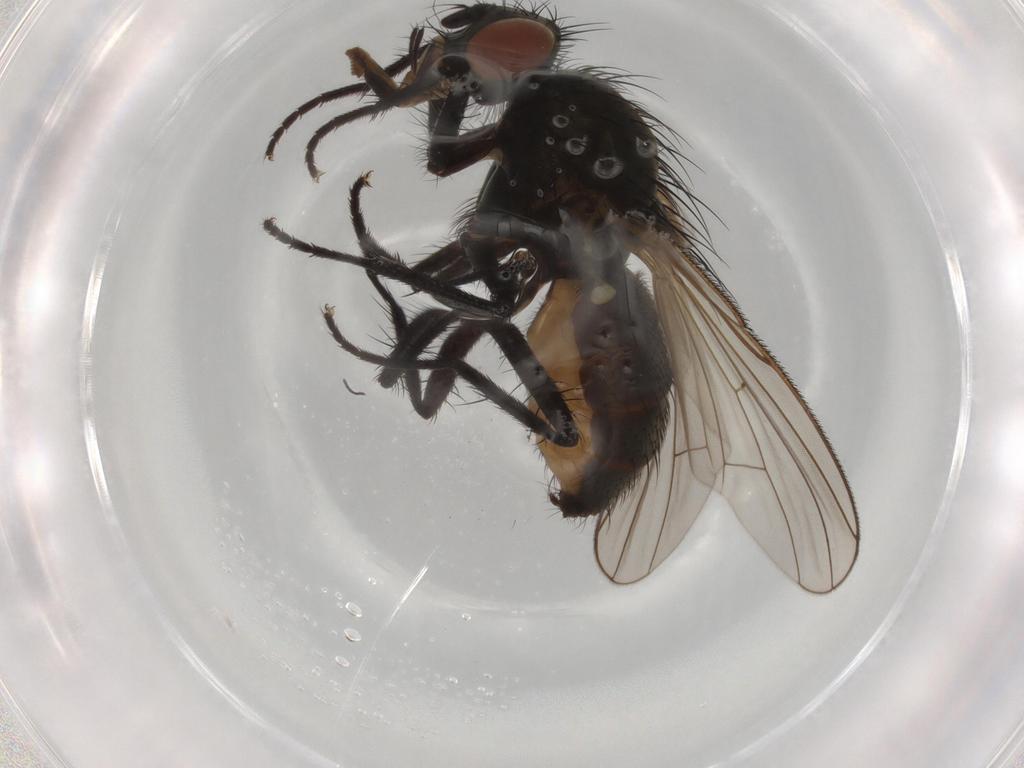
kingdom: Animalia
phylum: Arthropoda
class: Insecta
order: Diptera
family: Anthomyiidae
